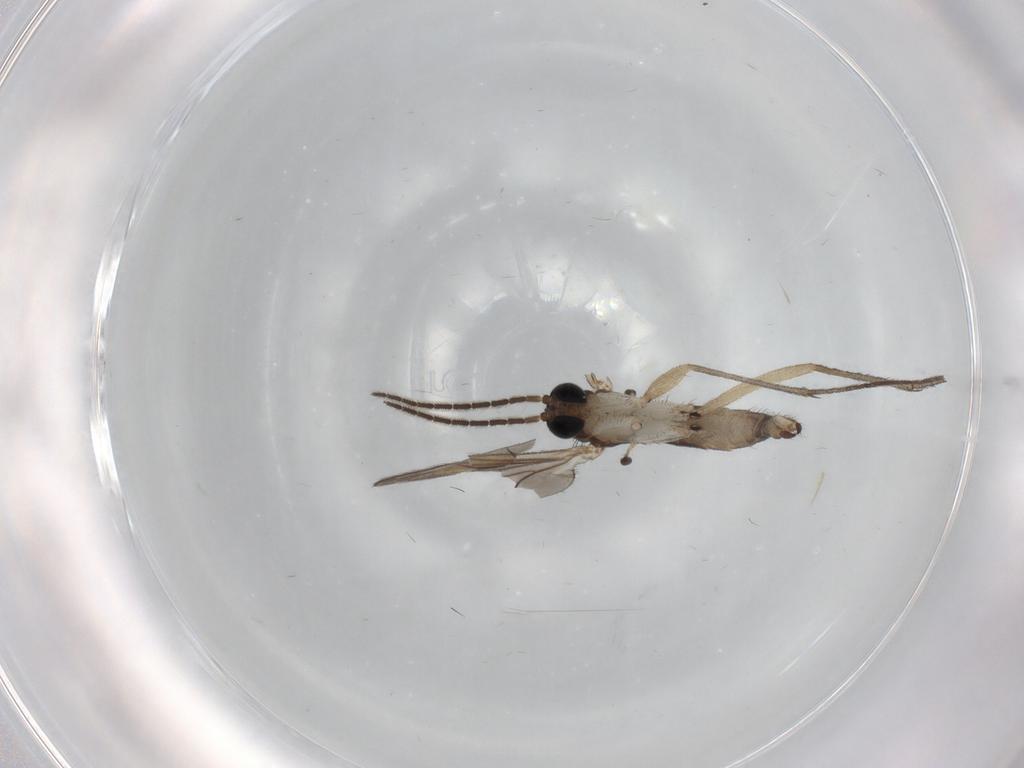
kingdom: Animalia
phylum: Arthropoda
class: Insecta
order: Diptera
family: Sciaridae
